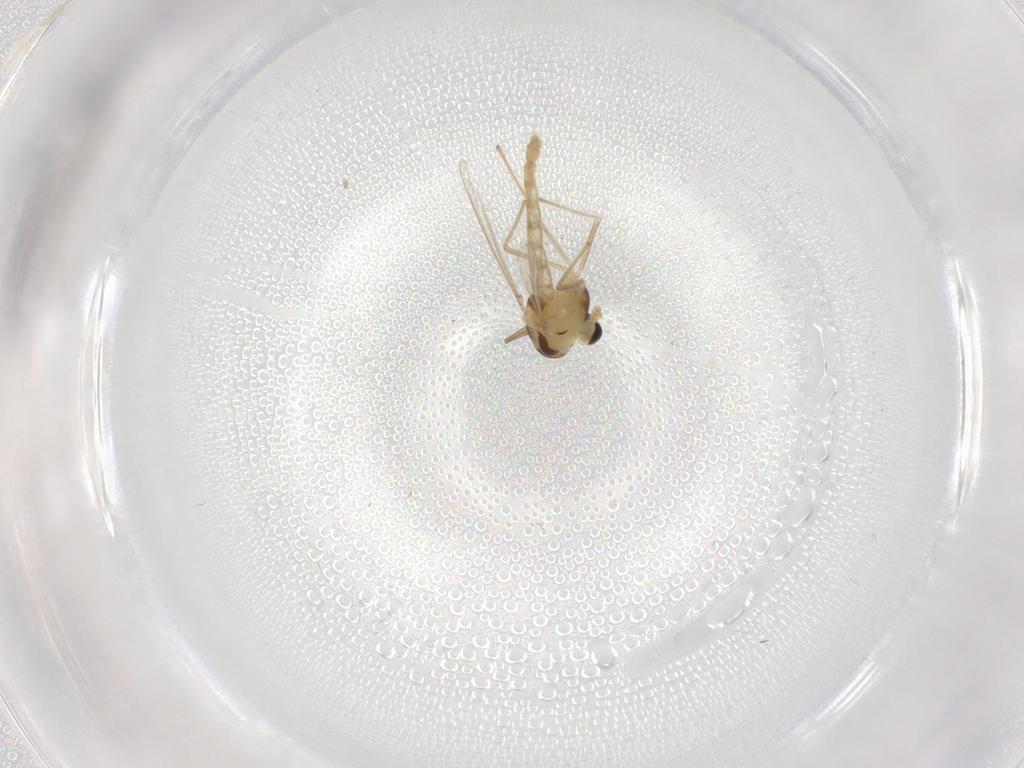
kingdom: Animalia
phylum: Arthropoda
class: Insecta
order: Diptera
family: Chironomidae
